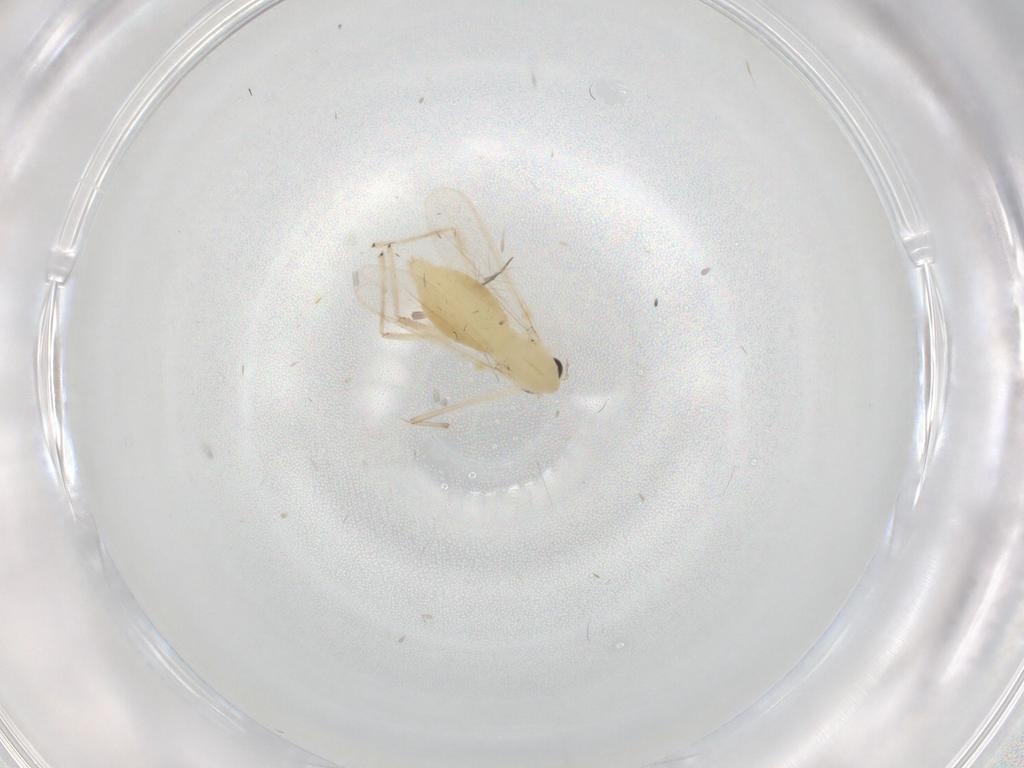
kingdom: Animalia
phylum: Arthropoda
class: Insecta
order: Diptera
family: Chironomidae
